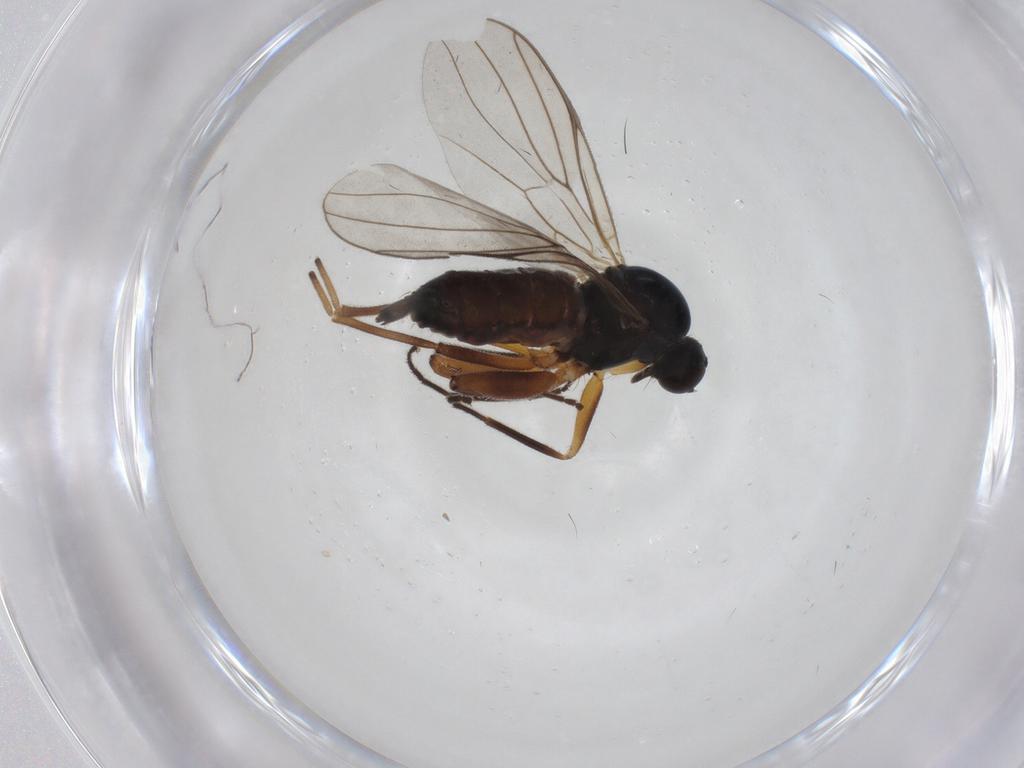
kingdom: Animalia
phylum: Arthropoda
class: Insecta
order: Diptera
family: Hybotidae
